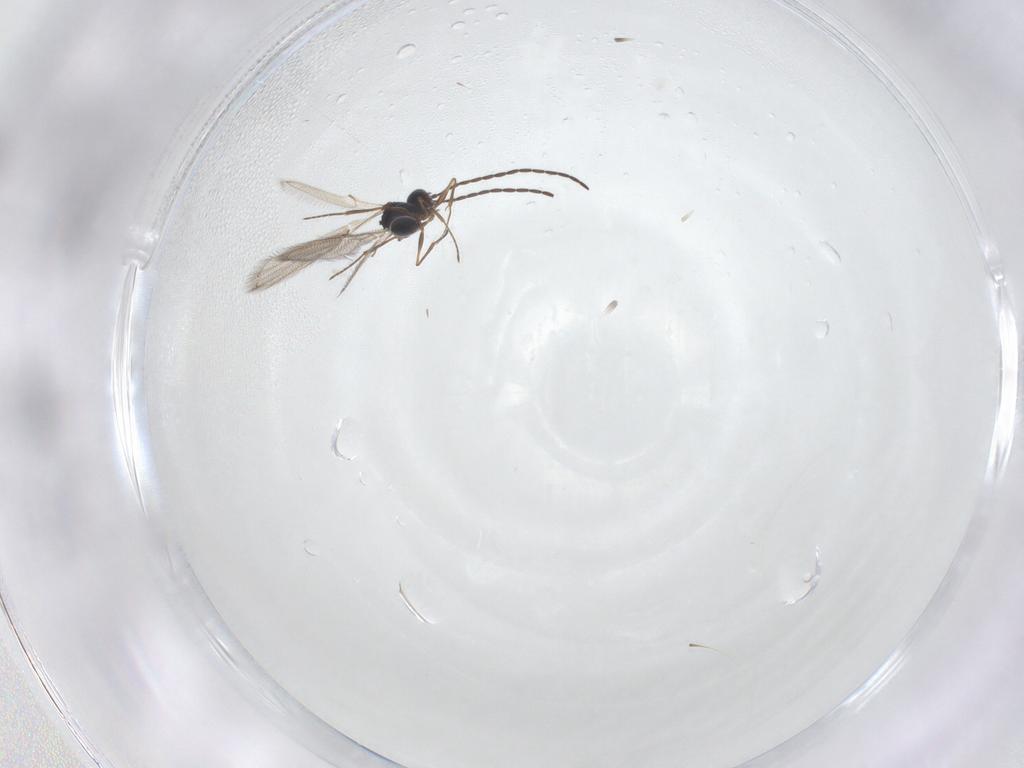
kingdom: Animalia
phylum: Arthropoda
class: Insecta
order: Hymenoptera
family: Figitidae
